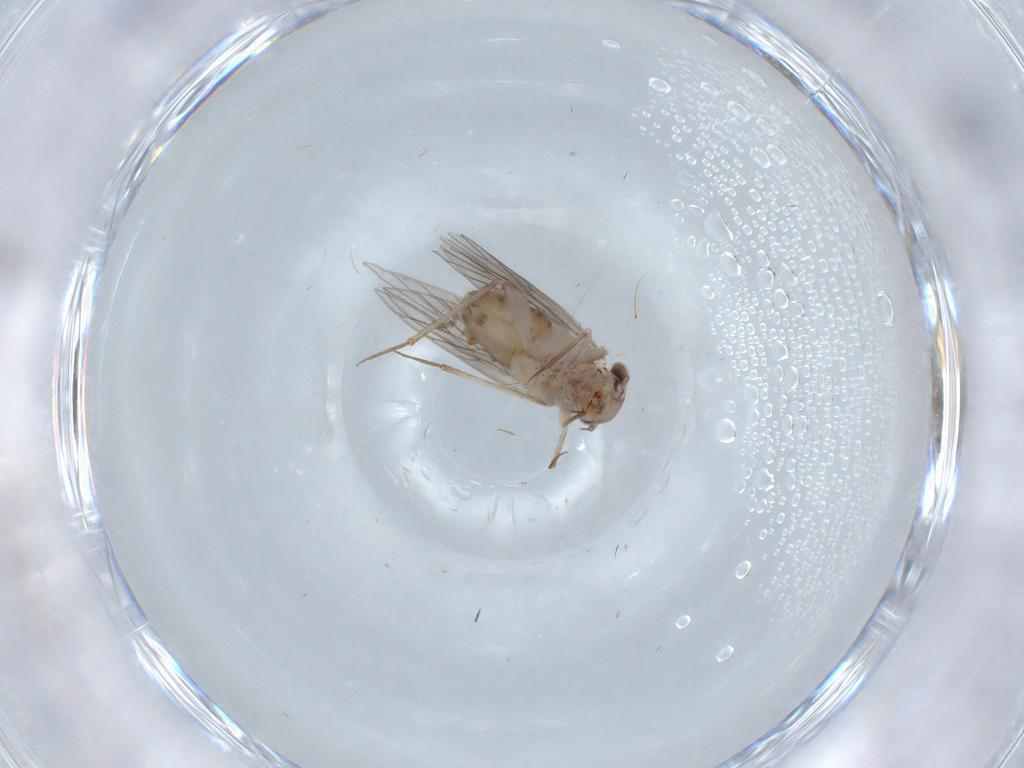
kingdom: Animalia
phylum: Arthropoda
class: Insecta
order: Psocodea
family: Lepidopsocidae
